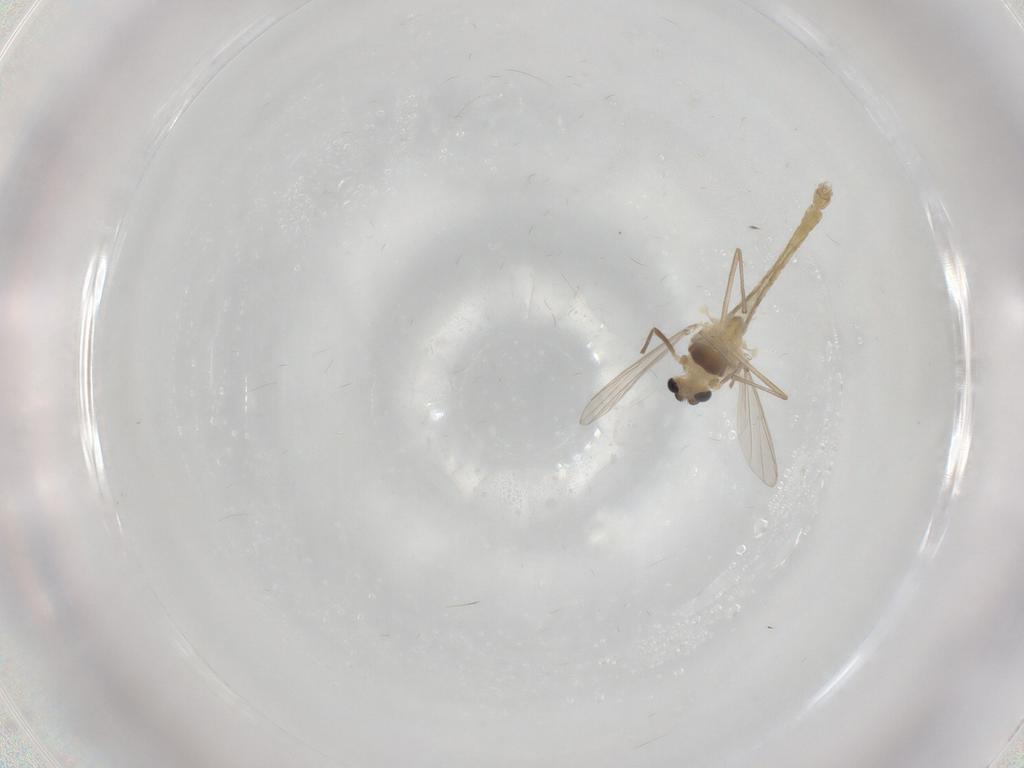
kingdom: Animalia
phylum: Arthropoda
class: Insecta
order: Diptera
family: Chironomidae
